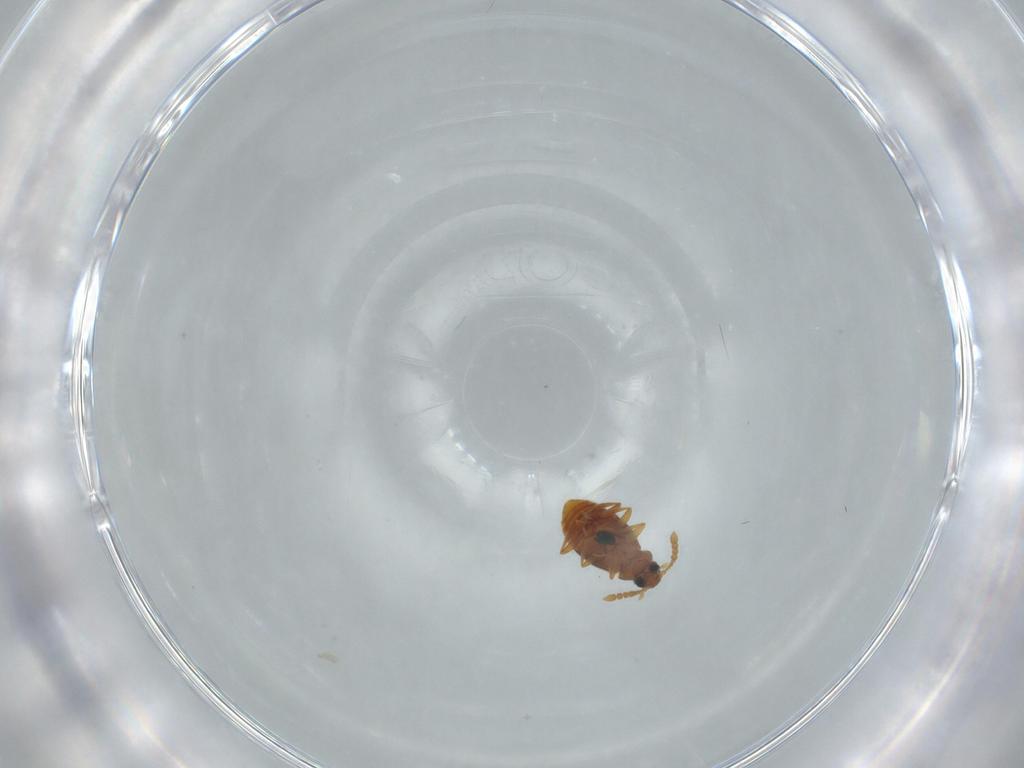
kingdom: Animalia
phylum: Arthropoda
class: Insecta
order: Coleoptera
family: Staphylinidae
